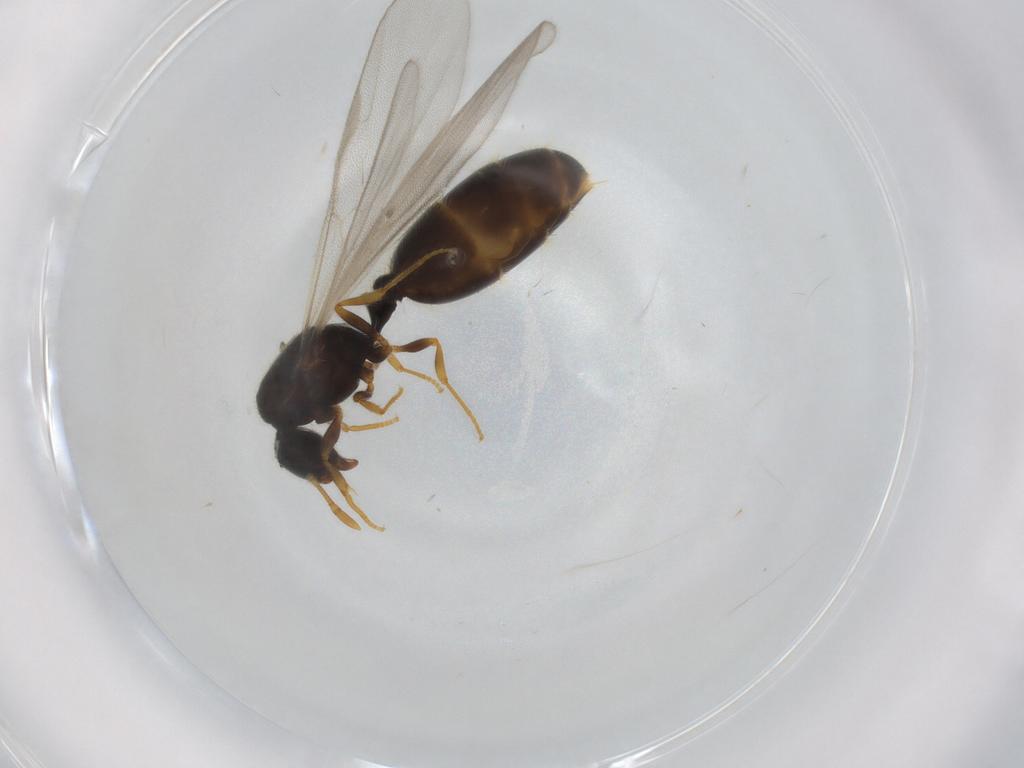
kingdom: Animalia
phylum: Arthropoda
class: Insecta
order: Hymenoptera
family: Formicidae
